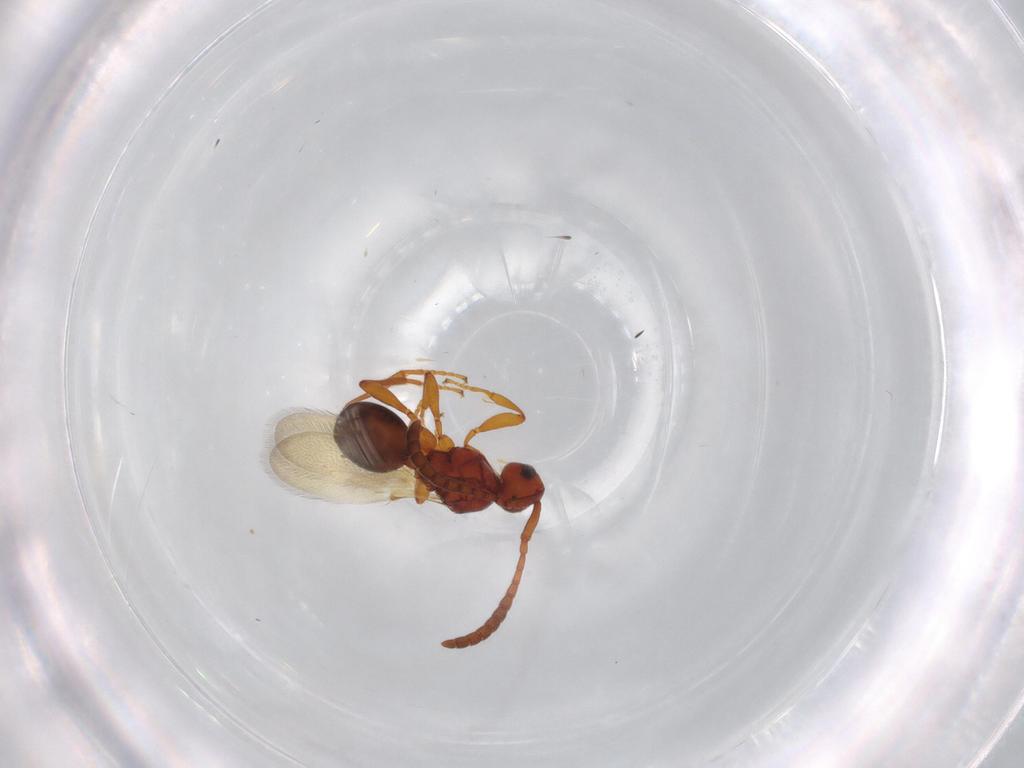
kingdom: Animalia
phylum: Arthropoda
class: Insecta
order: Hymenoptera
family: Diapriidae
